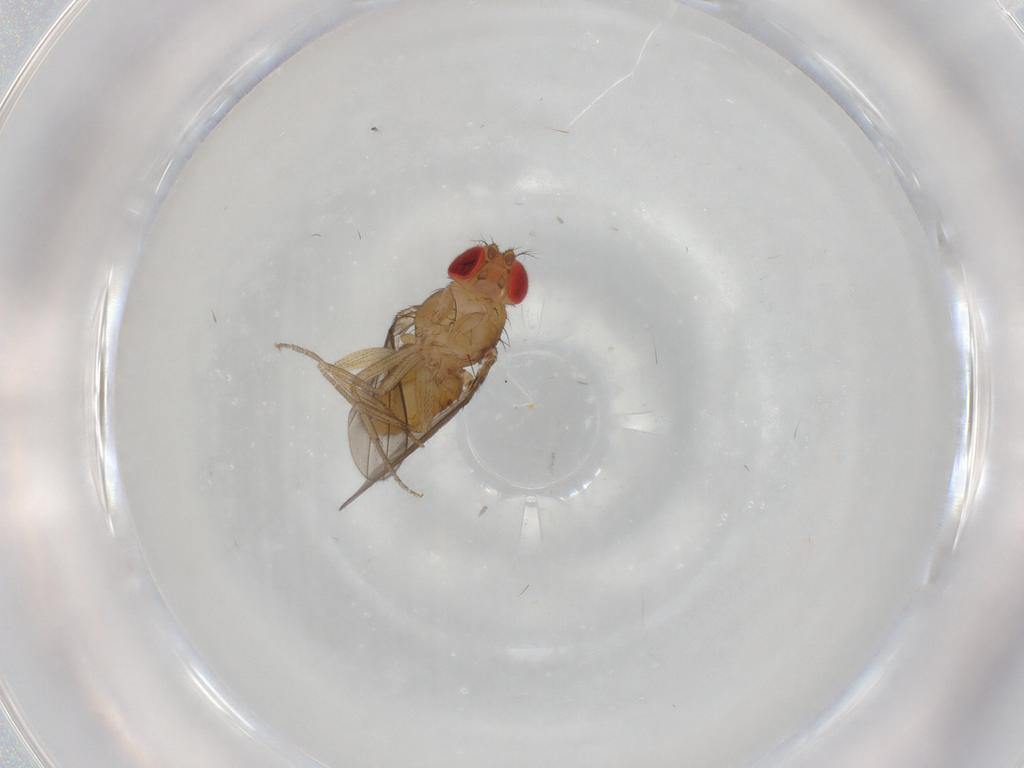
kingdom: Animalia
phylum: Arthropoda
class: Insecta
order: Diptera
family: Drosophilidae
